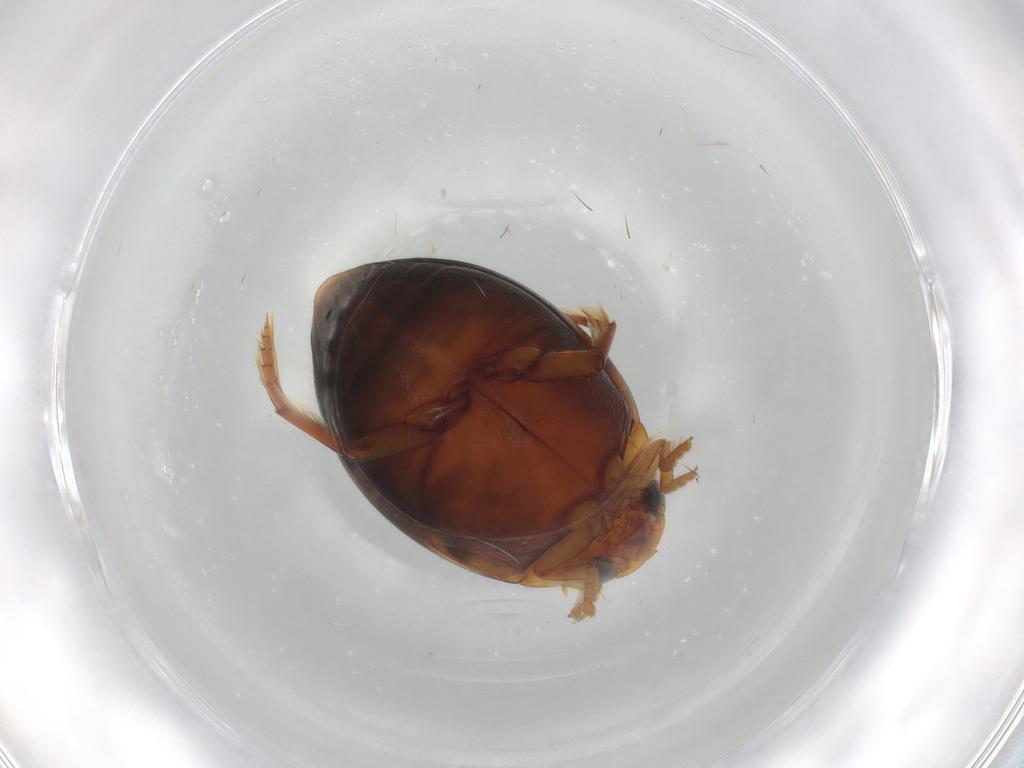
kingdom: Animalia
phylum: Arthropoda
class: Insecta
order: Coleoptera
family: Dytiscidae
